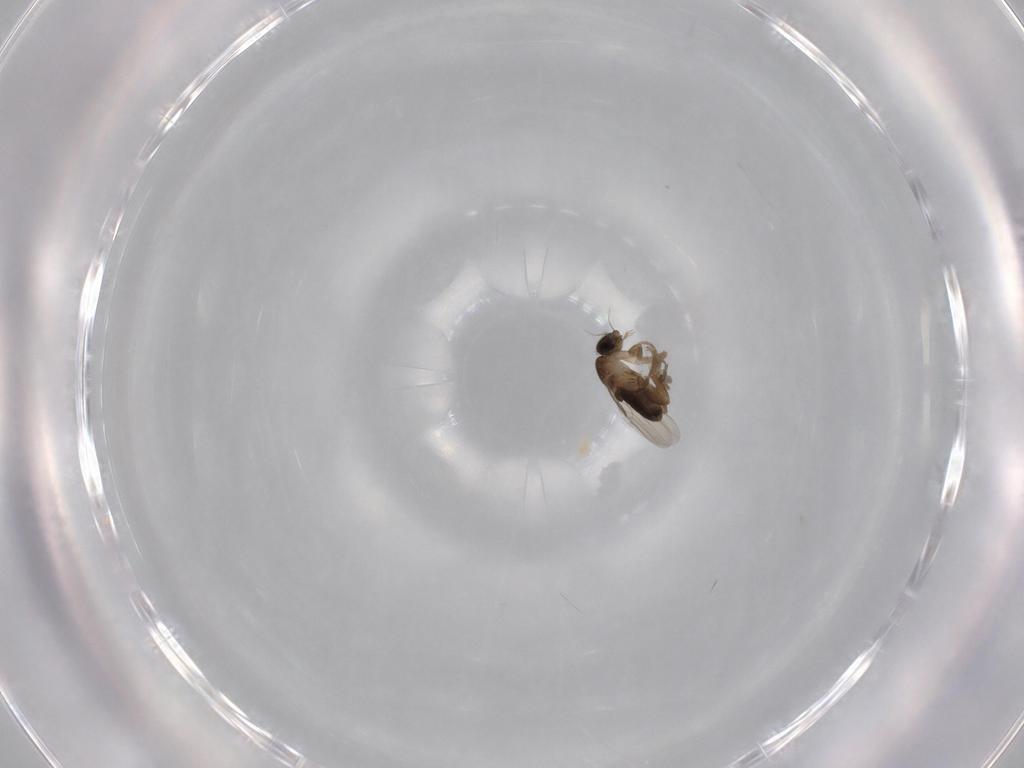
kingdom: Animalia
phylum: Arthropoda
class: Insecta
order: Diptera
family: Phoridae
